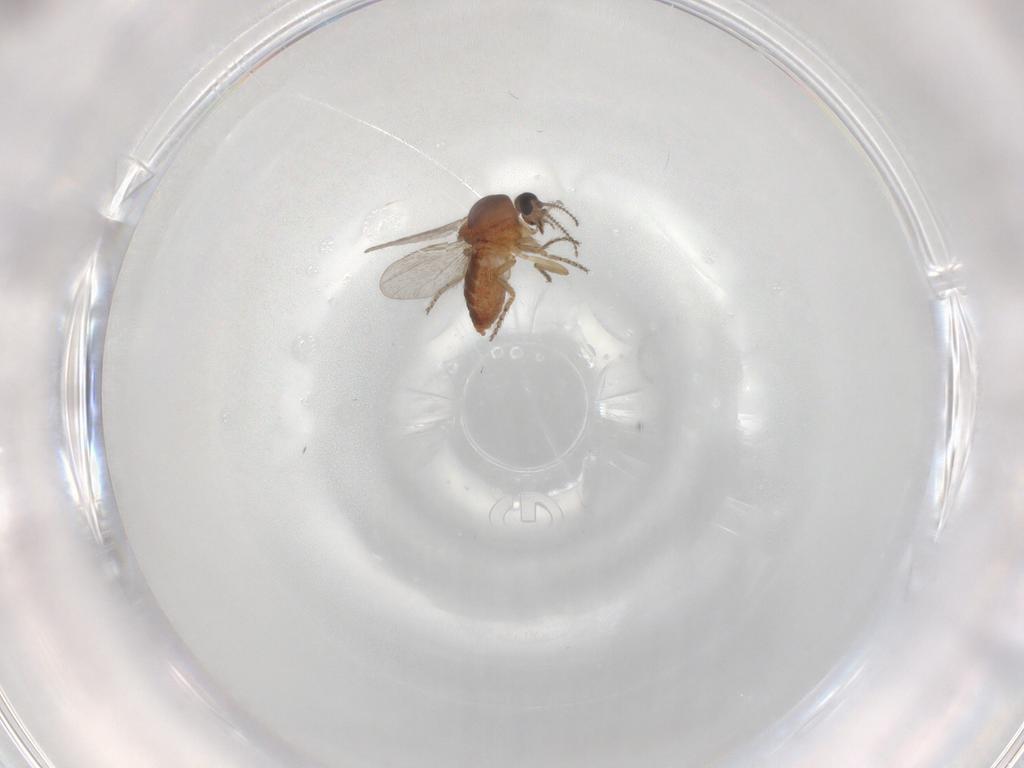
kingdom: Animalia
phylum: Arthropoda
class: Insecta
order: Diptera
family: Ceratopogonidae
